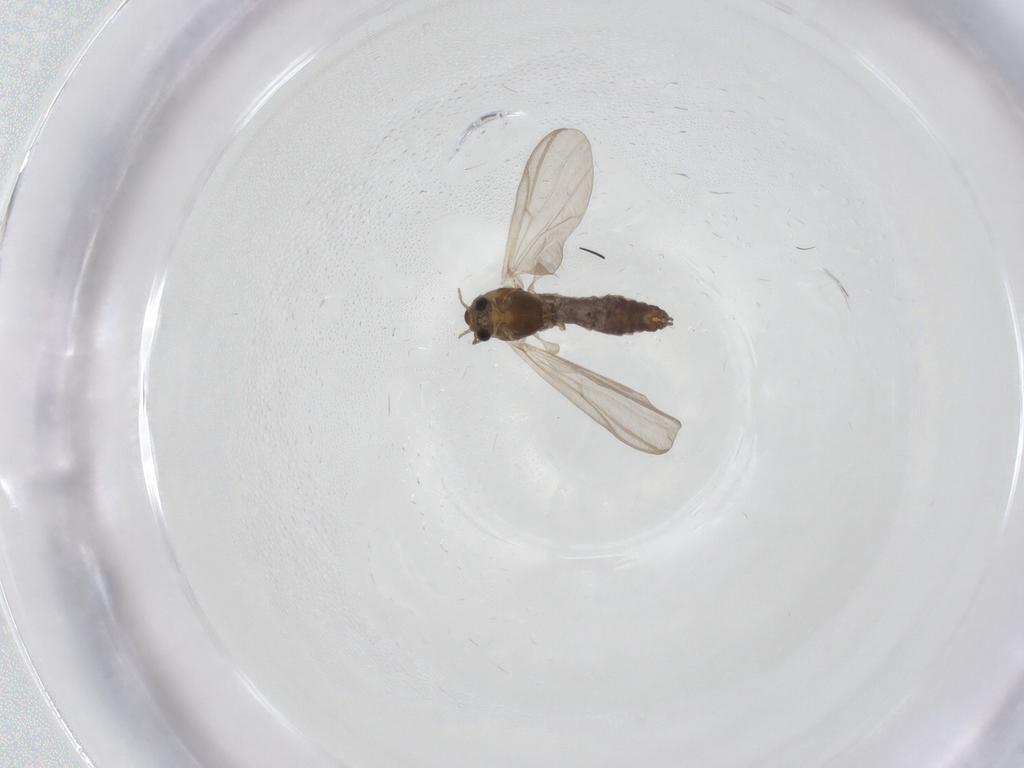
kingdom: Animalia
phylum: Arthropoda
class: Insecta
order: Diptera
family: Chironomidae
